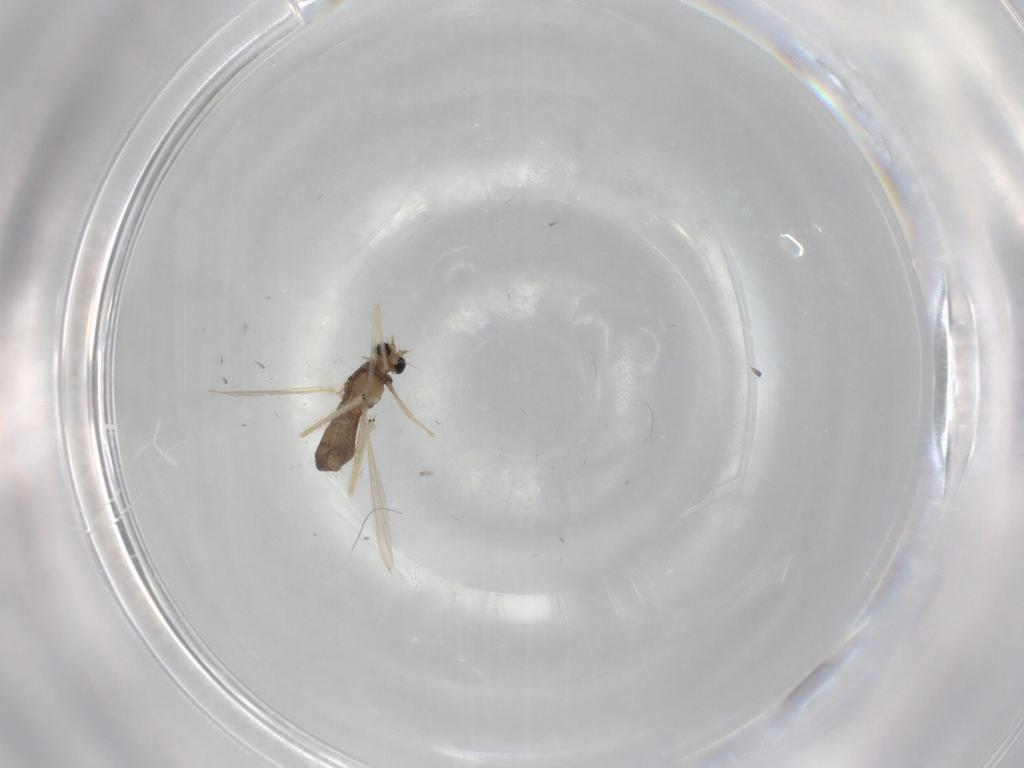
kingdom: Animalia
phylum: Arthropoda
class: Insecta
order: Diptera
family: Chironomidae
